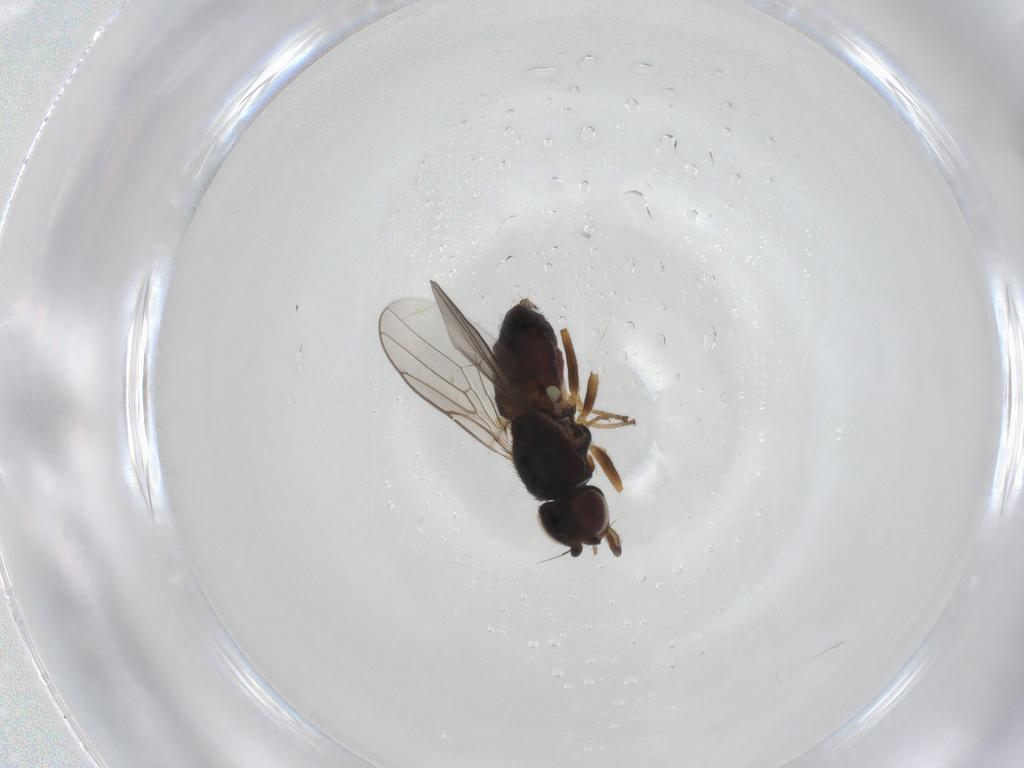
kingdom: Animalia
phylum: Arthropoda
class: Insecta
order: Diptera
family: Chloropidae
